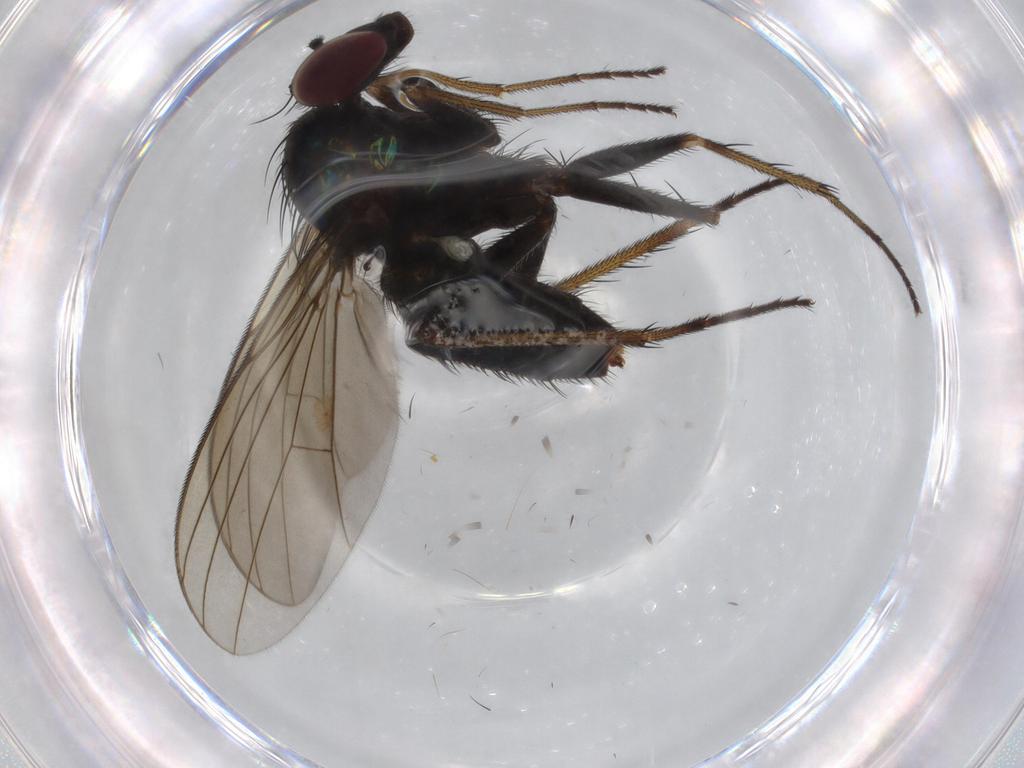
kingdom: Animalia
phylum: Arthropoda
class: Insecta
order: Diptera
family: Sciaridae
